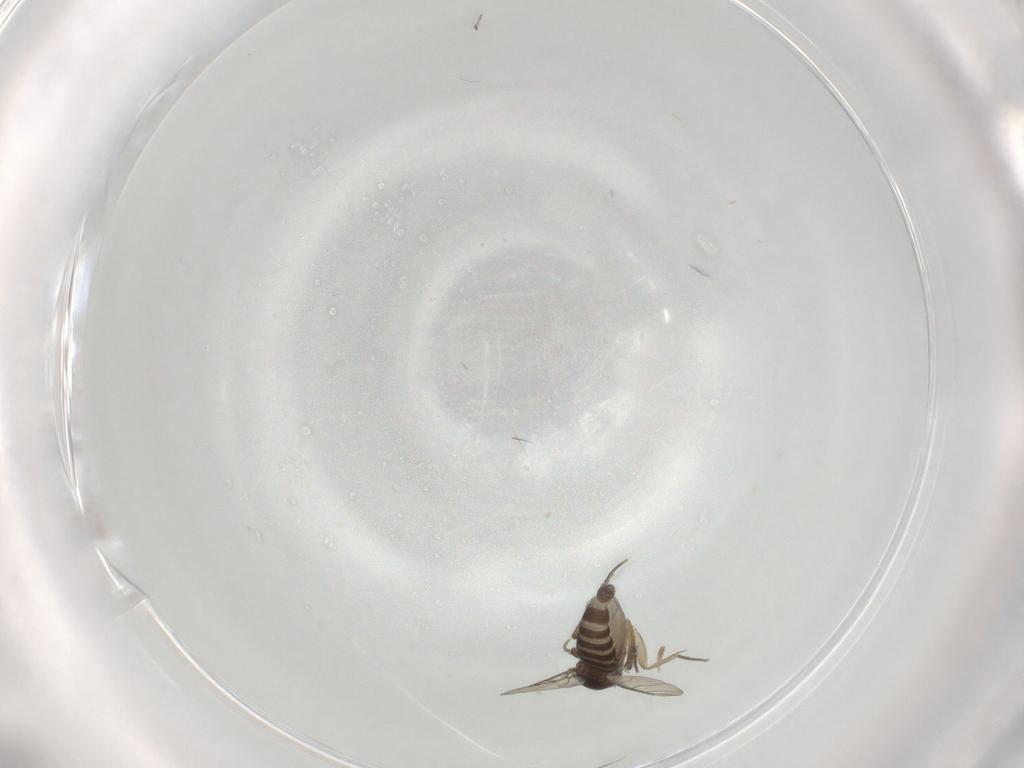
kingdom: Animalia
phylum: Arthropoda
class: Insecta
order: Diptera
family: Phoridae
